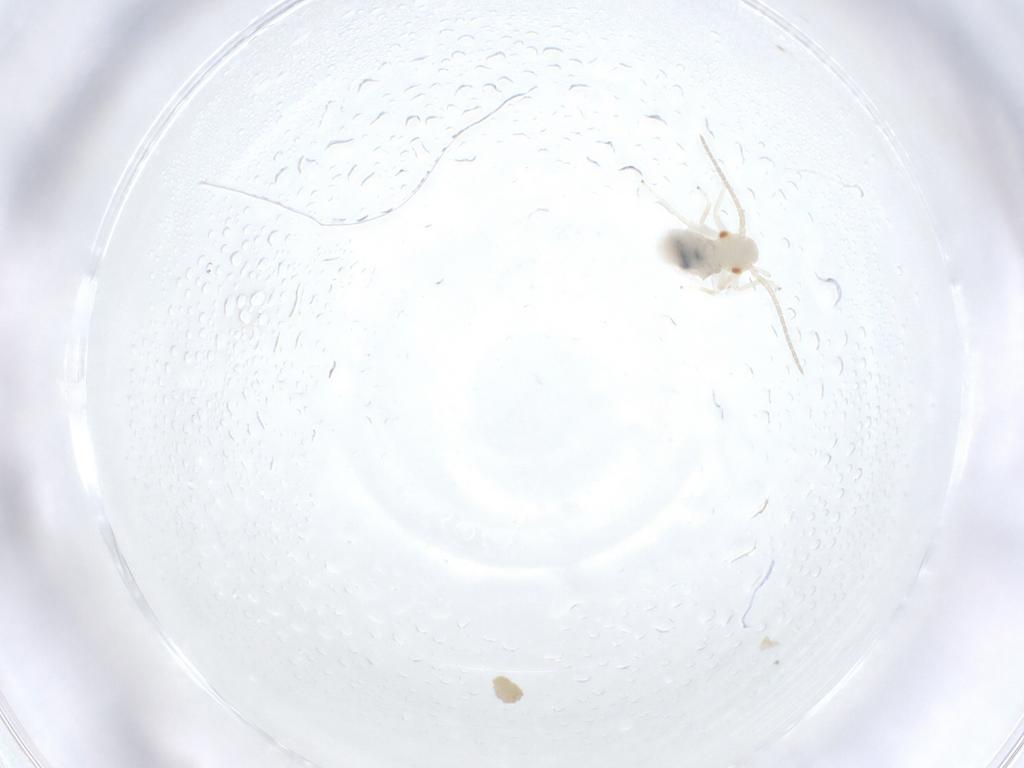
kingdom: Animalia
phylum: Arthropoda
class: Insecta
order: Psocodea
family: Caeciliusidae
